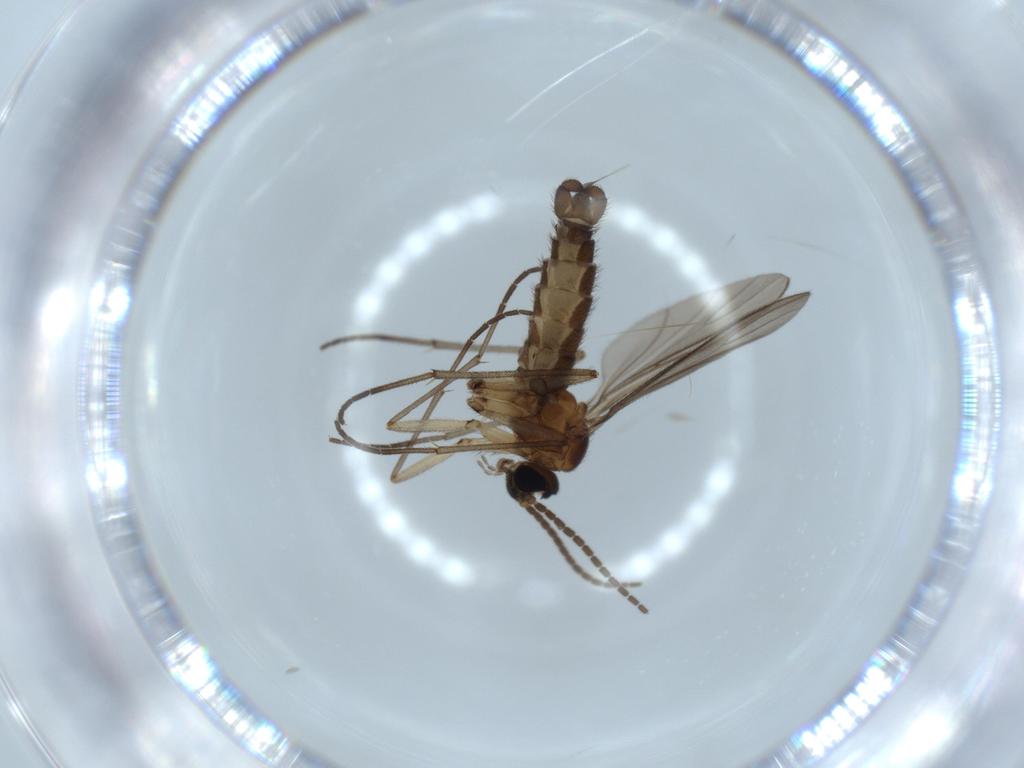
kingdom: Animalia
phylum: Arthropoda
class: Insecta
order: Diptera
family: Sciaridae
